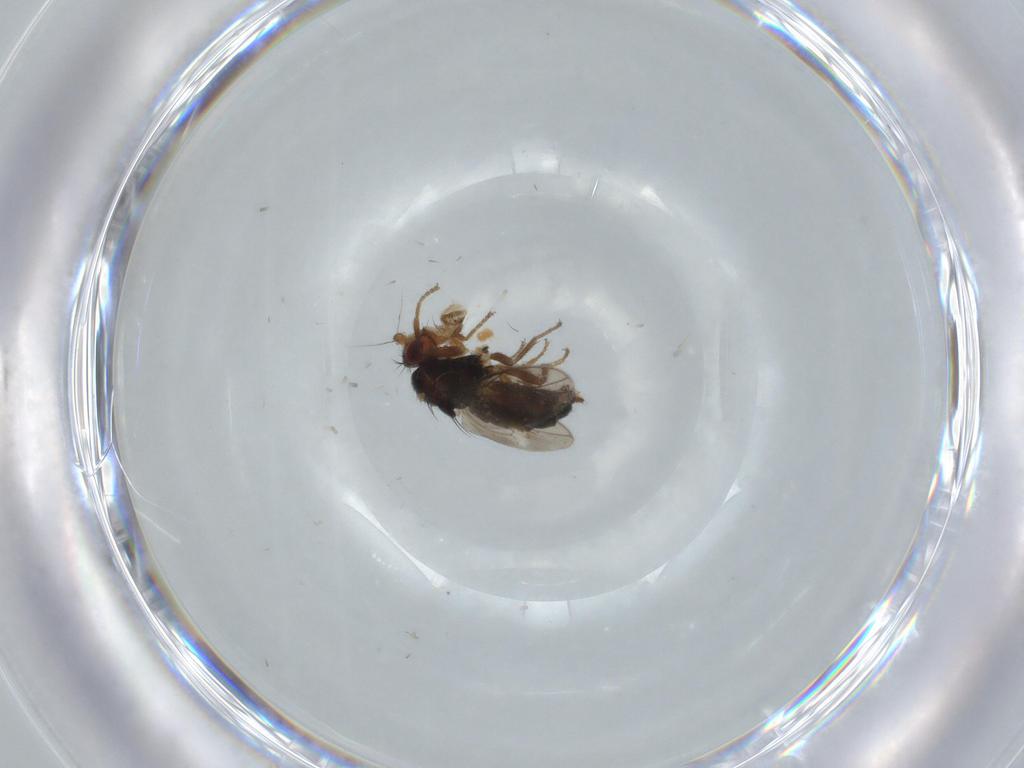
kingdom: Animalia
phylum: Arthropoda
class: Insecta
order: Diptera
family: Sphaeroceridae
